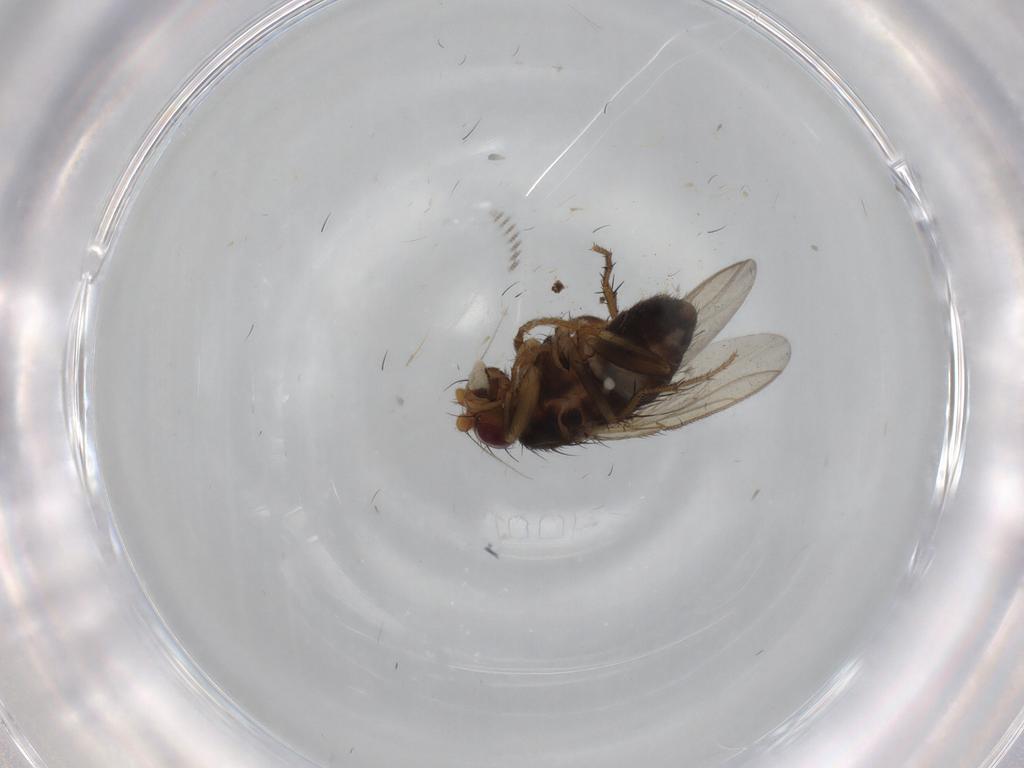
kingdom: Animalia
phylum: Arthropoda
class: Insecta
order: Diptera
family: Sphaeroceridae
